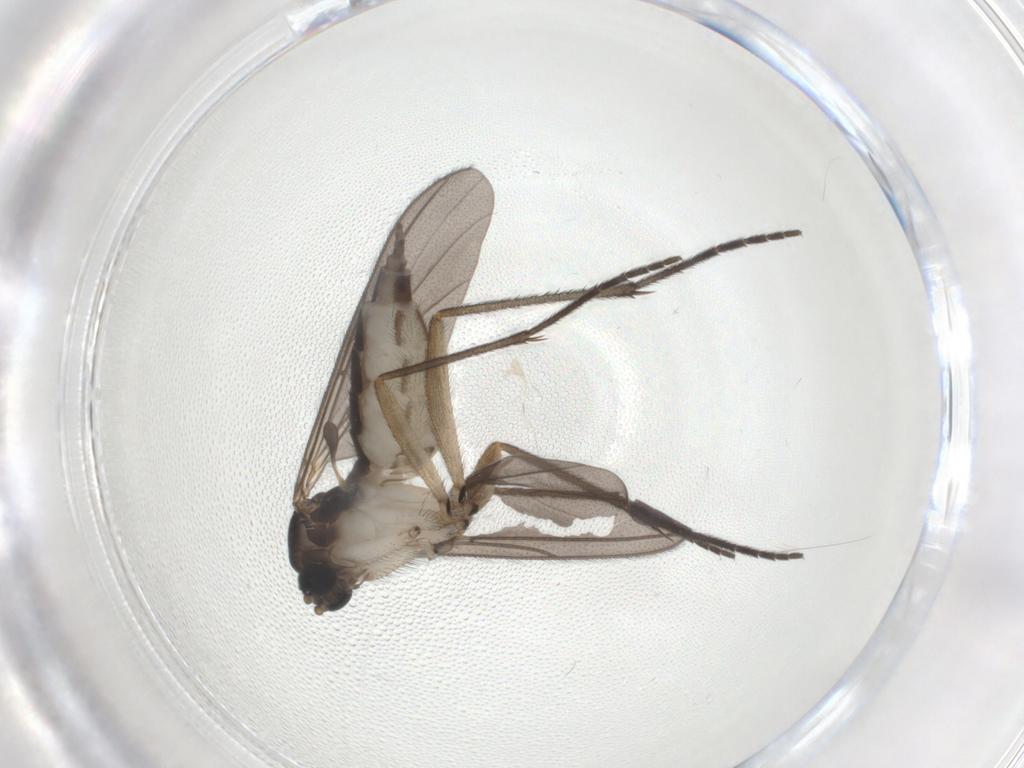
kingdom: Animalia
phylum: Arthropoda
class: Insecta
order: Diptera
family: Sciaridae
